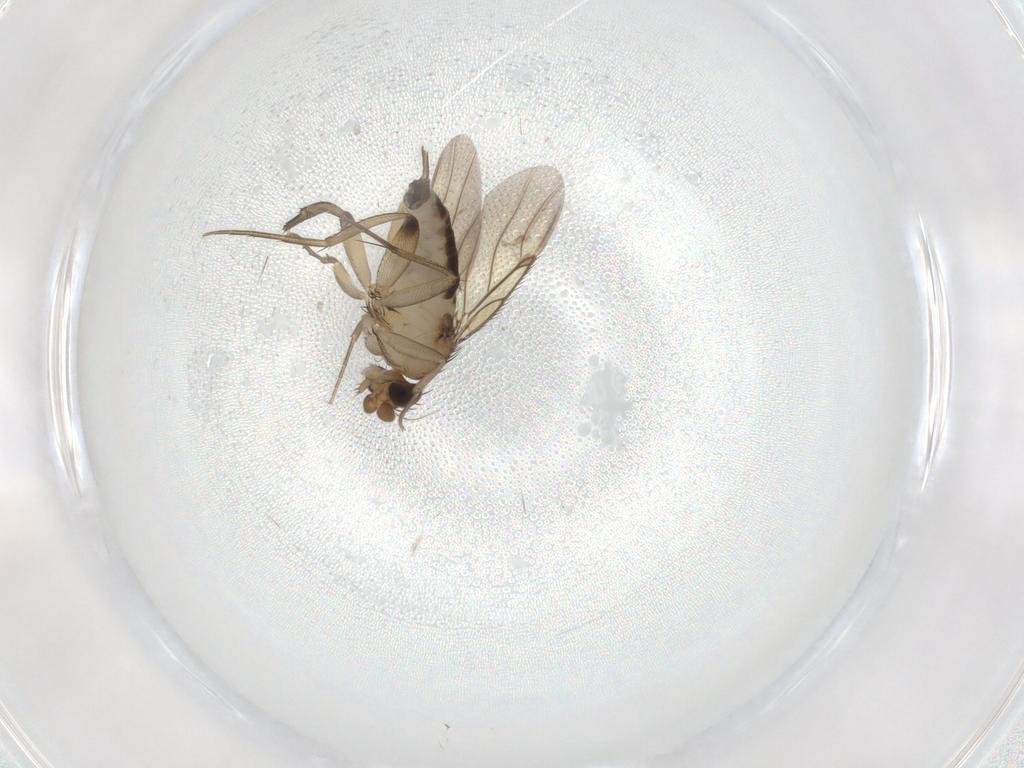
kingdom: Animalia
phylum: Arthropoda
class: Insecta
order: Diptera
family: Phoridae
